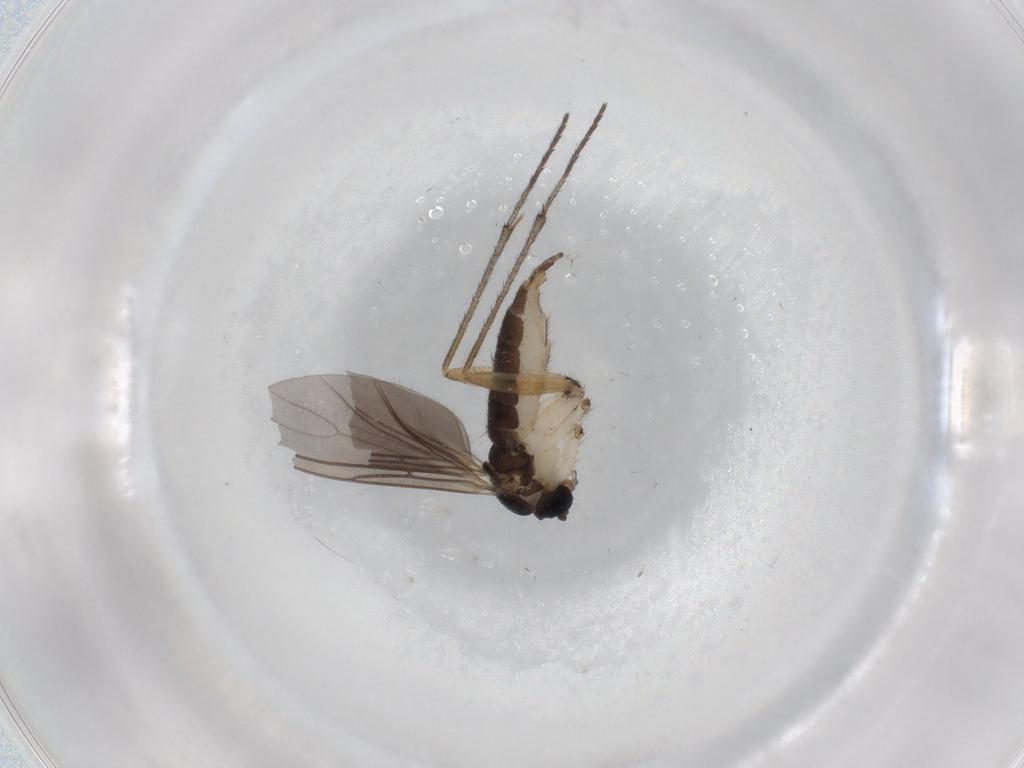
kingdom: Animalia
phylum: Arthropoda
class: Insecta
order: Diptera
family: Sciaridae
